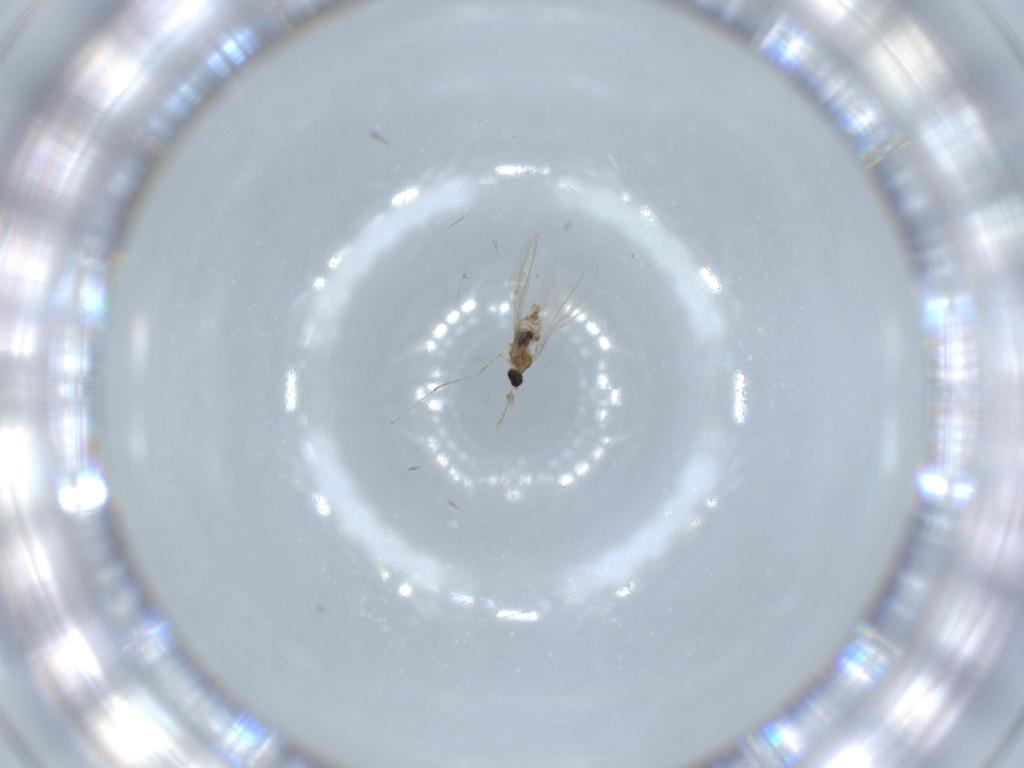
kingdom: Animalia
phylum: Arthropoda
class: Insecta
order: Diptera
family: Cecidomyiidae
